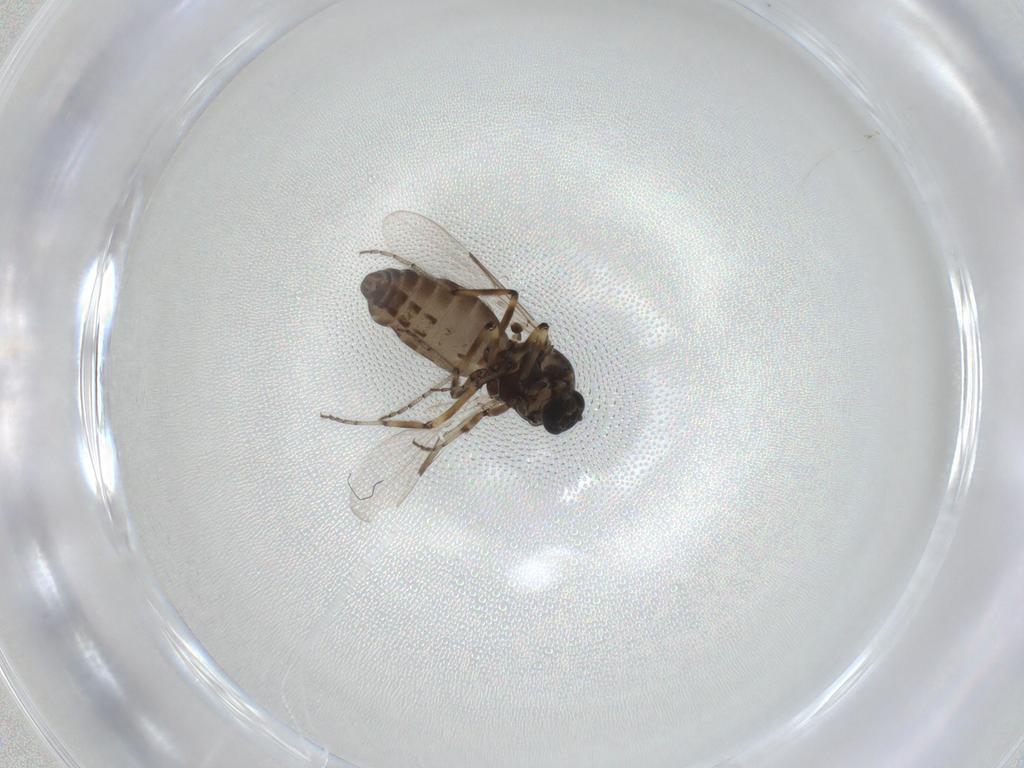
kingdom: Animalia
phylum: Arthropoda
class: Insecta
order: Diptera
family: Ceratopogonidae
